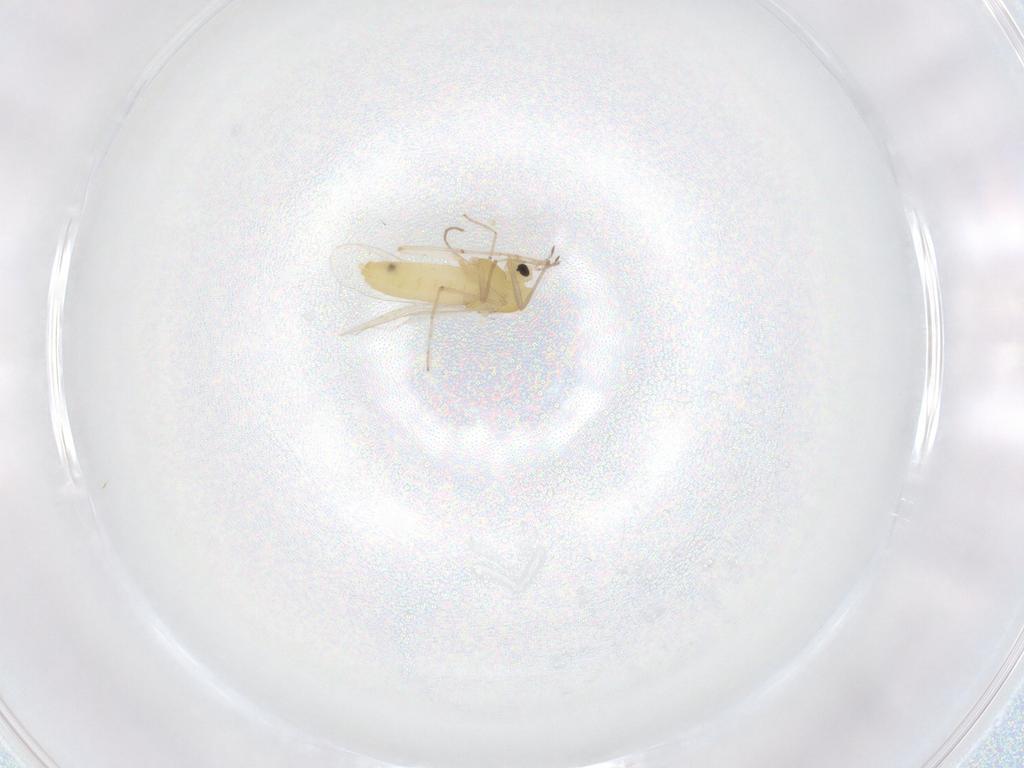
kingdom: Animalia
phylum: Arthropoda
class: Insecta
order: Diptera
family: Chironomidae
